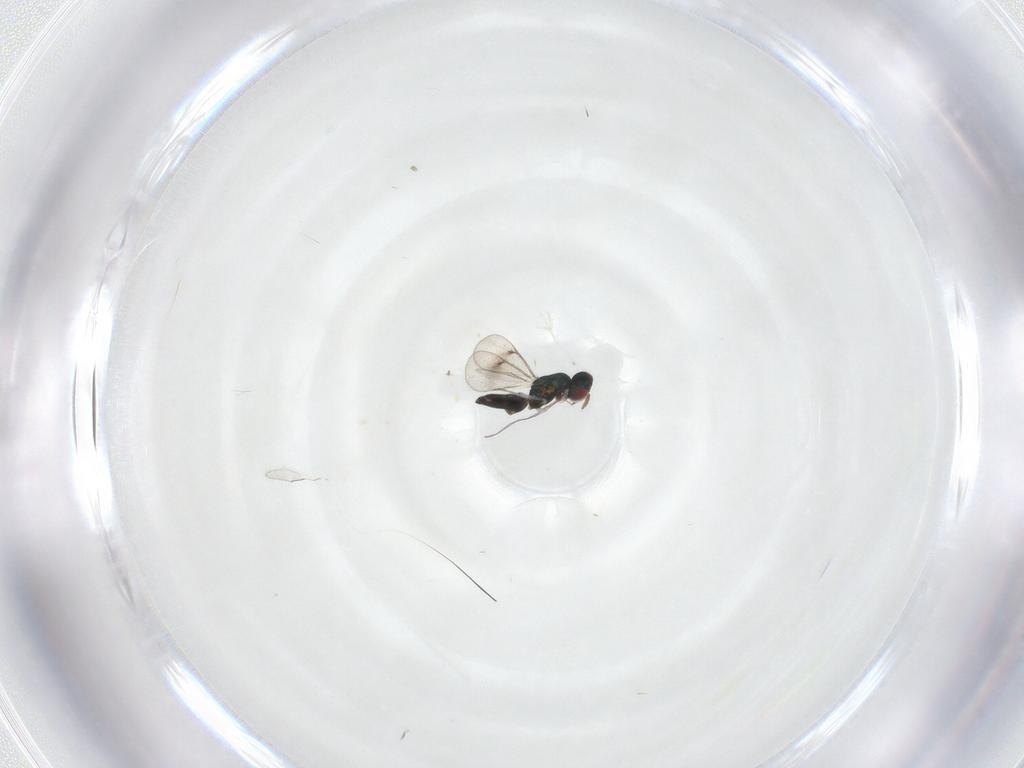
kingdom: Animalia
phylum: Arthropoda
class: Insecta
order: Hymenoptera
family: Eulophidae
